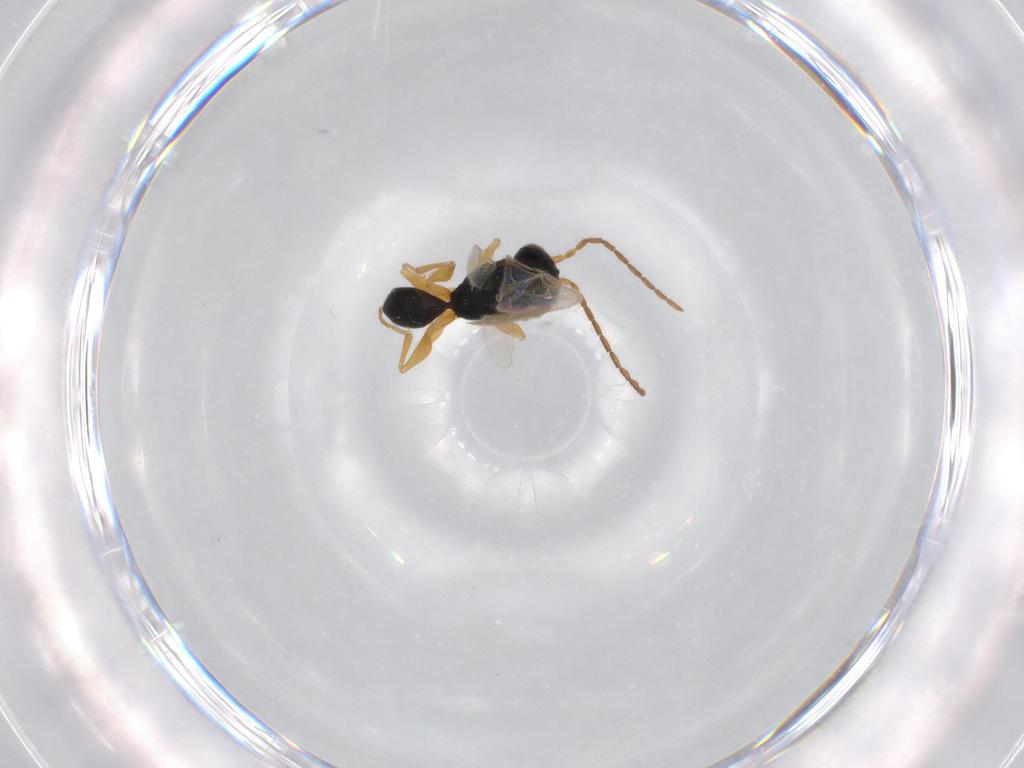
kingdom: Animalia
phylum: Arthropoda
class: Insecta
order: Hymenoptera
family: Dryinidae
